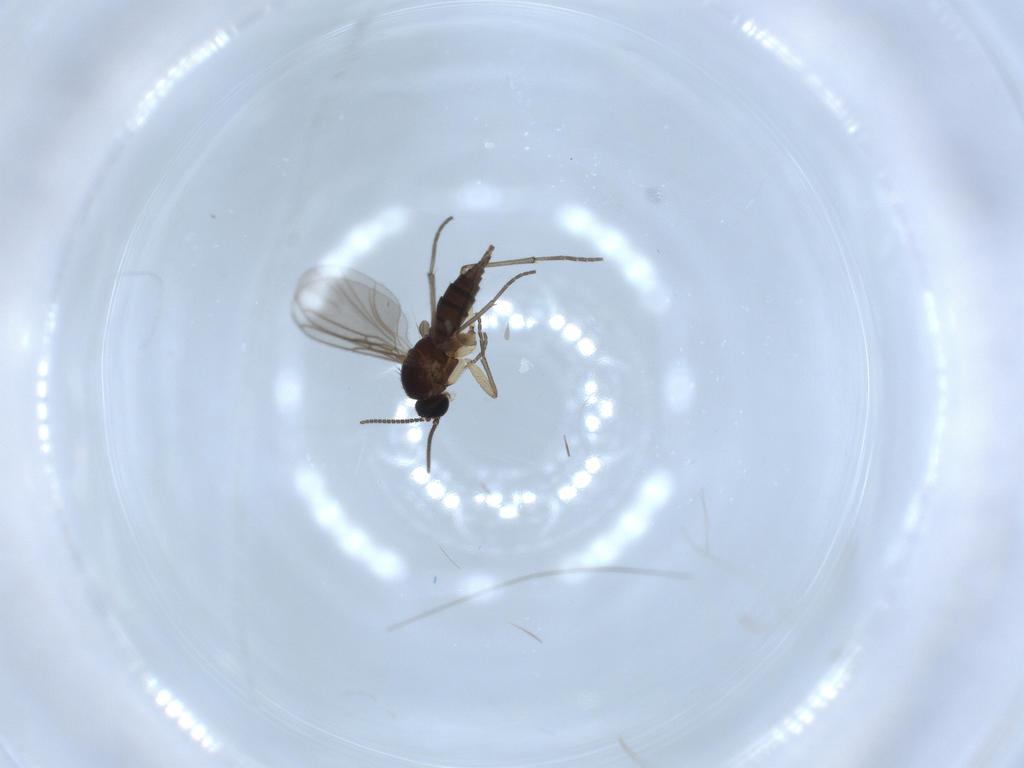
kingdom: Animalia
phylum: Arthropoda
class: Insecta
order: Diptera
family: Sciaridae
